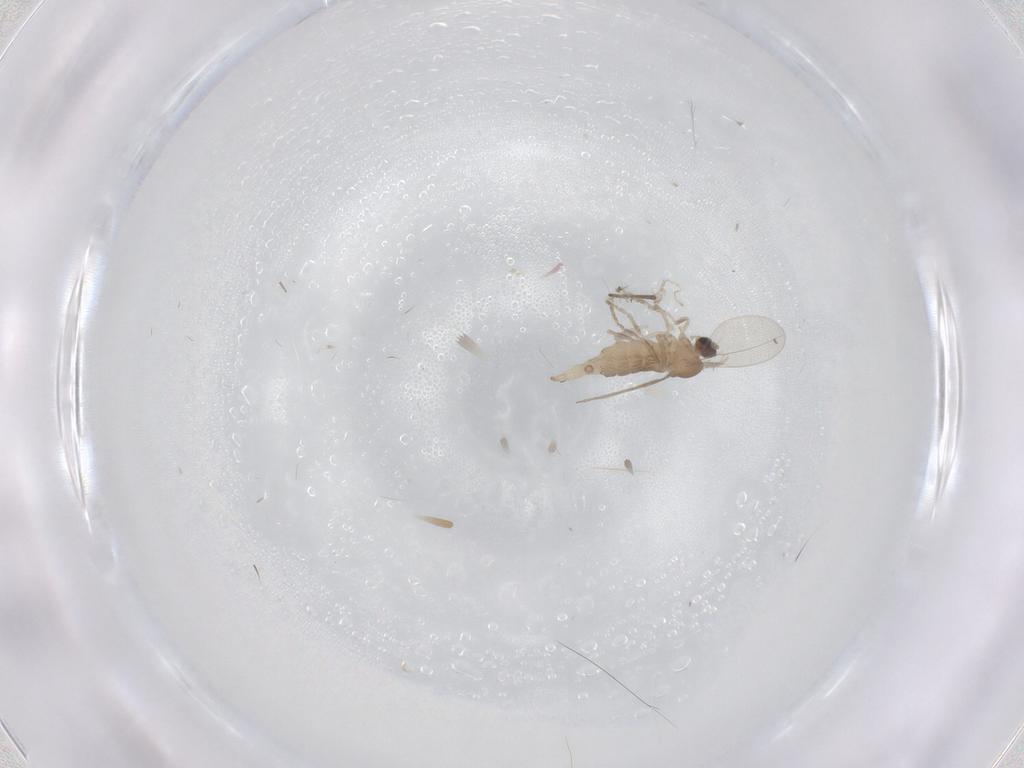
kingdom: Animalia
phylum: Arthropoda
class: Insecta
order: Diptera
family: Cecidomyiidae
